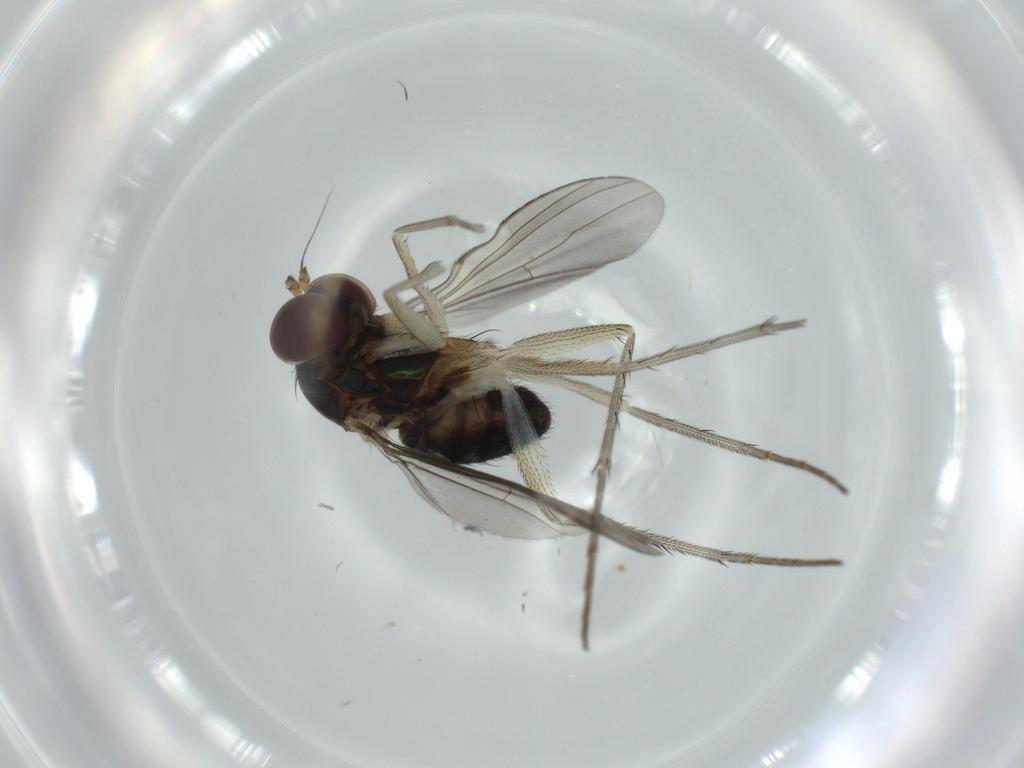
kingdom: Animalia
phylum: Arthropoda
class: Insecta
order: Diptera
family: Dolichopodidae
